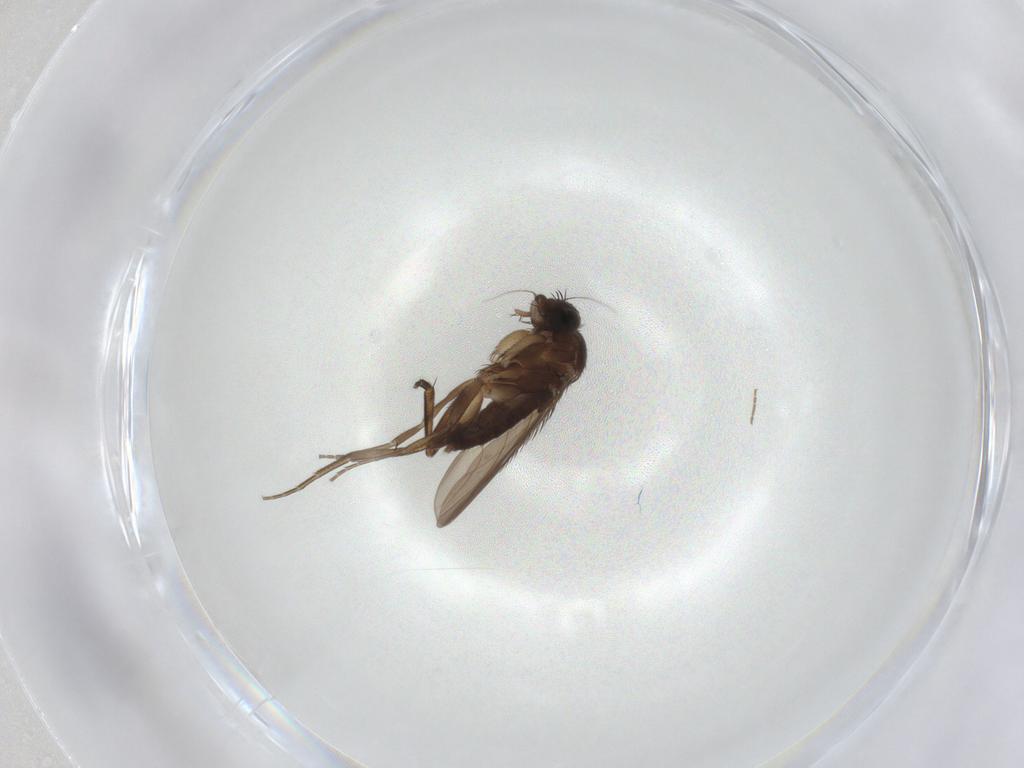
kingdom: Animalia
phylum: Arthropoda
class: Insecta
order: Diptera
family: Phoridae
